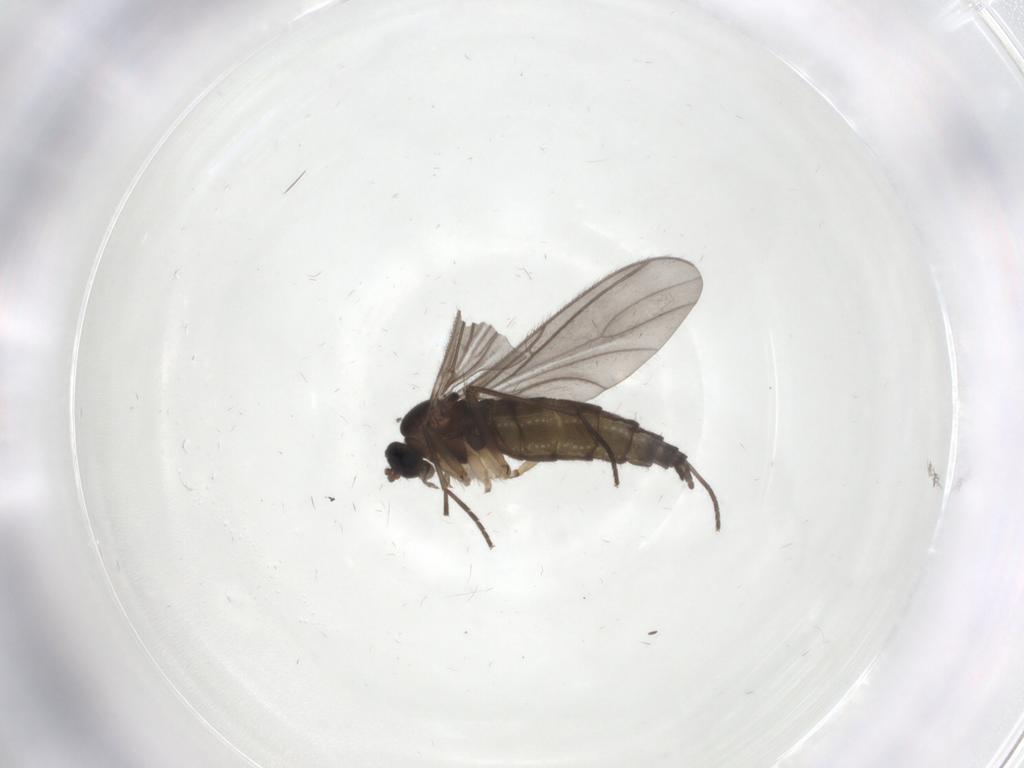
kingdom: Animalia
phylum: Arthropoda
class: Insecta
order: Diptera
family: Sciaridae
